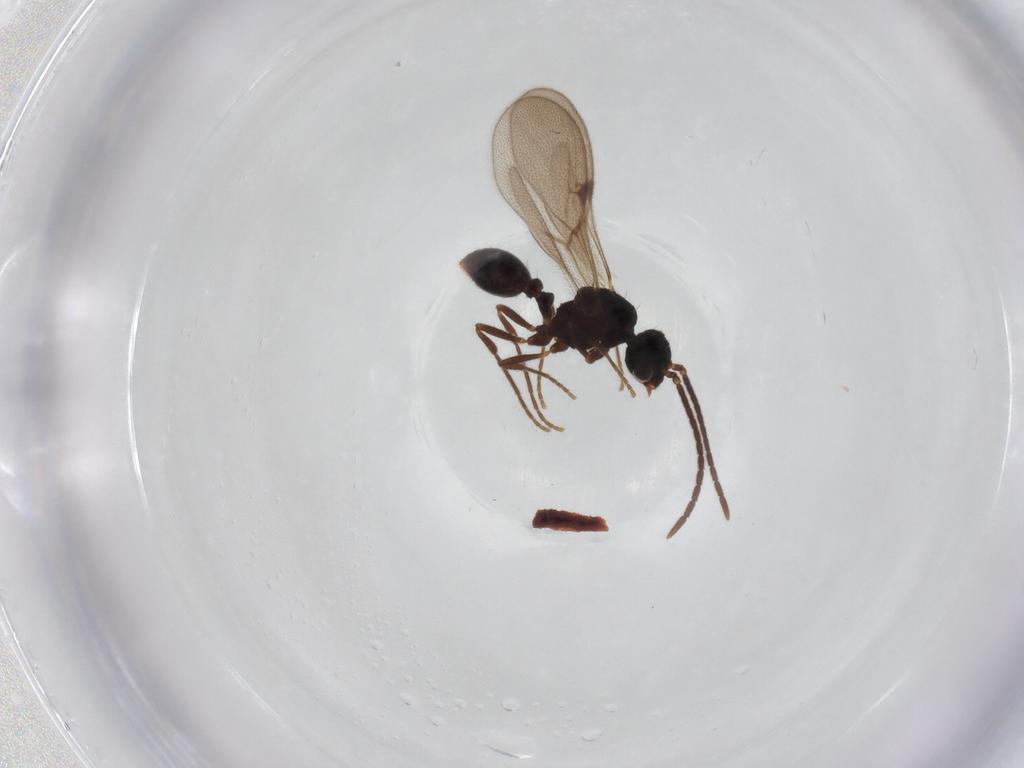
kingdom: Animalia
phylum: Arthropoda
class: Insecta
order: Hymenoptera
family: Formicidae
